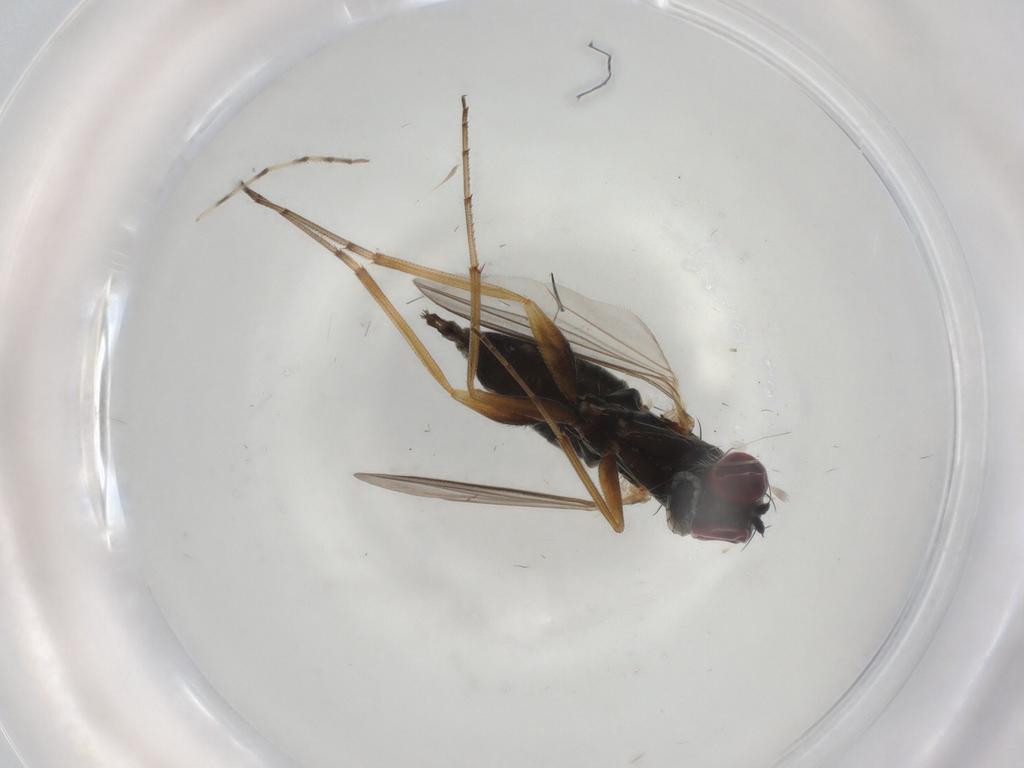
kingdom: Animalia
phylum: Arthropoda
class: Insecta
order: Diptera
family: Dolichopodidae
